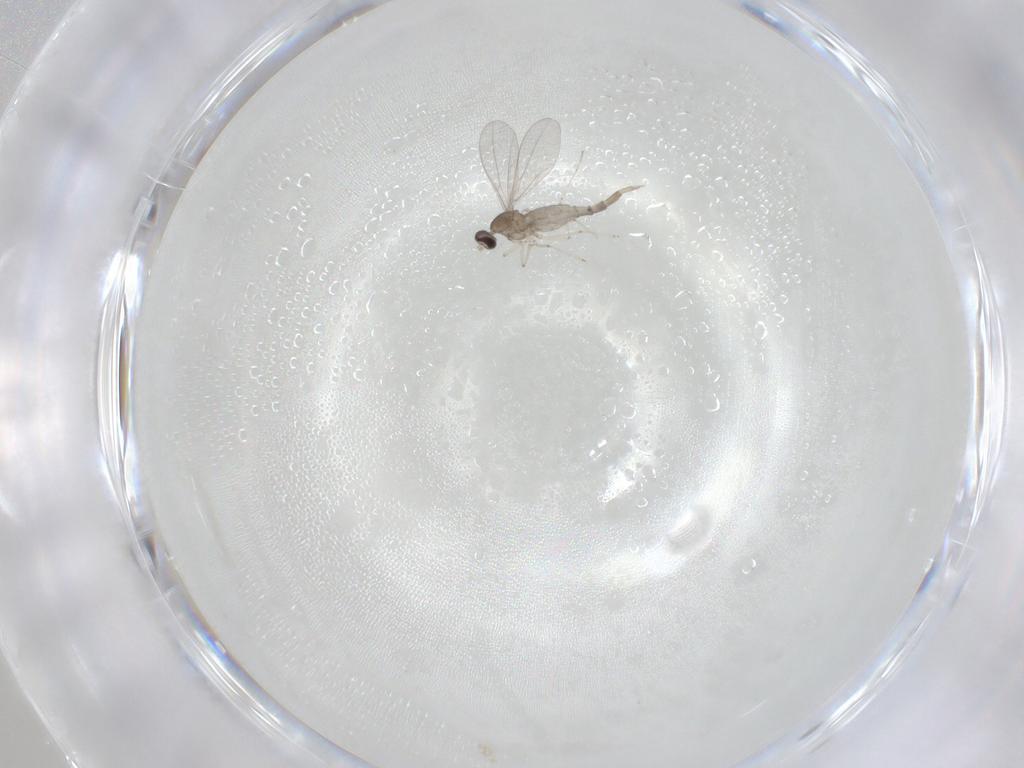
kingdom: Animalia
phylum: Arthropoda
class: Insecta
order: Diptera
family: Cecidomyiidae
